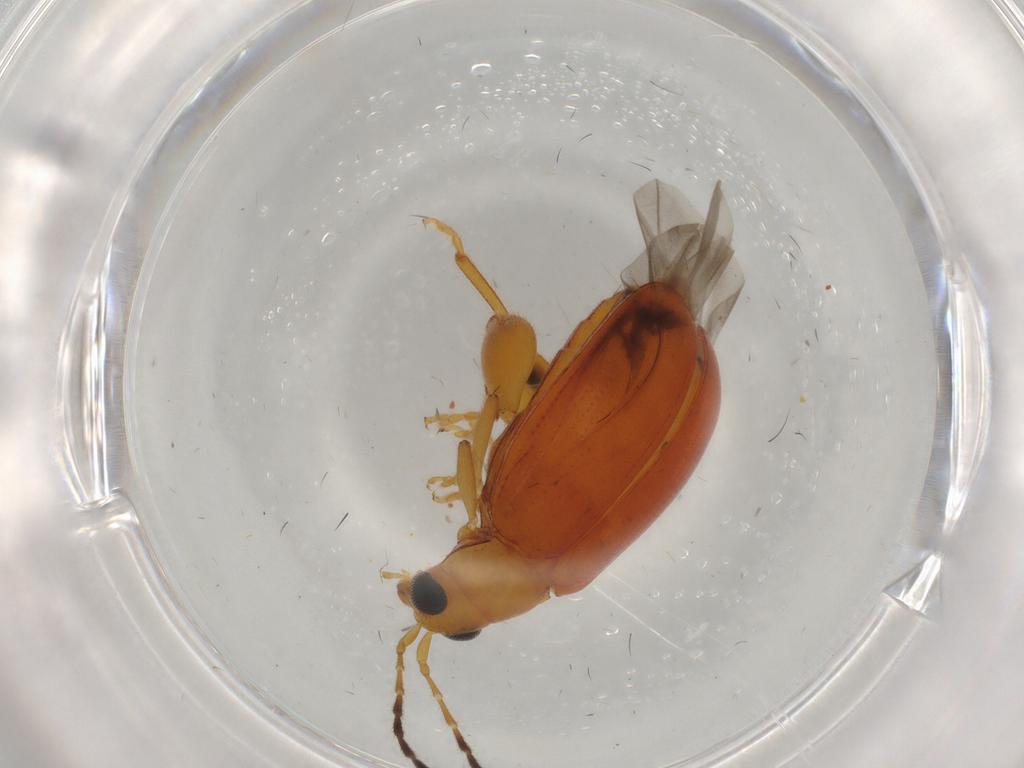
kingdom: Animalia
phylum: Arthropoda
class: Insecta
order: Coleoptera
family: Chrysomelidae
